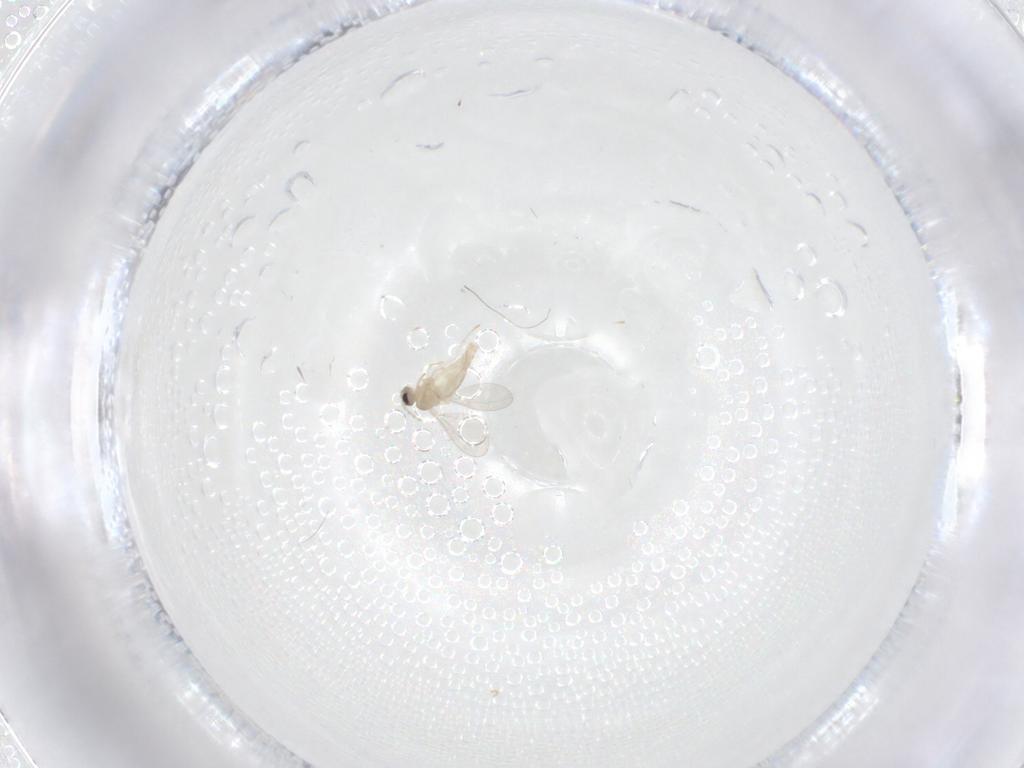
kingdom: Animalia
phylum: Arthropoda
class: Insecta
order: Diptera
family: Cecidomyiidae
